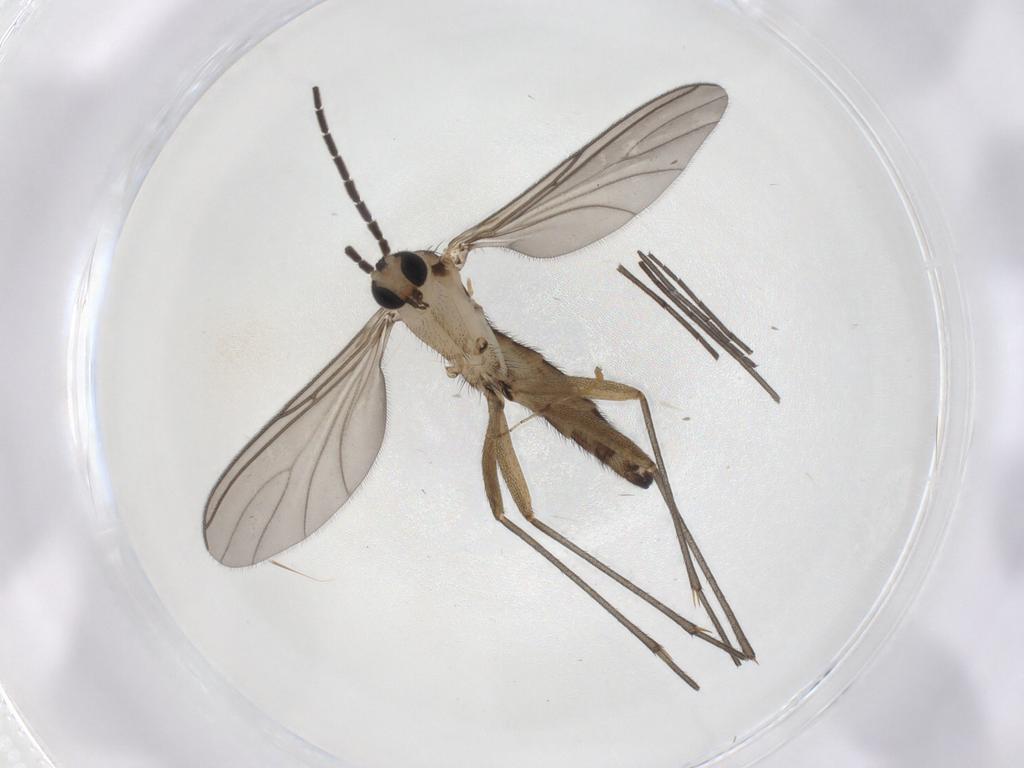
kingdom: Animalia
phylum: Arthropoda
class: Insecta
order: Diptera
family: Sciaridae
